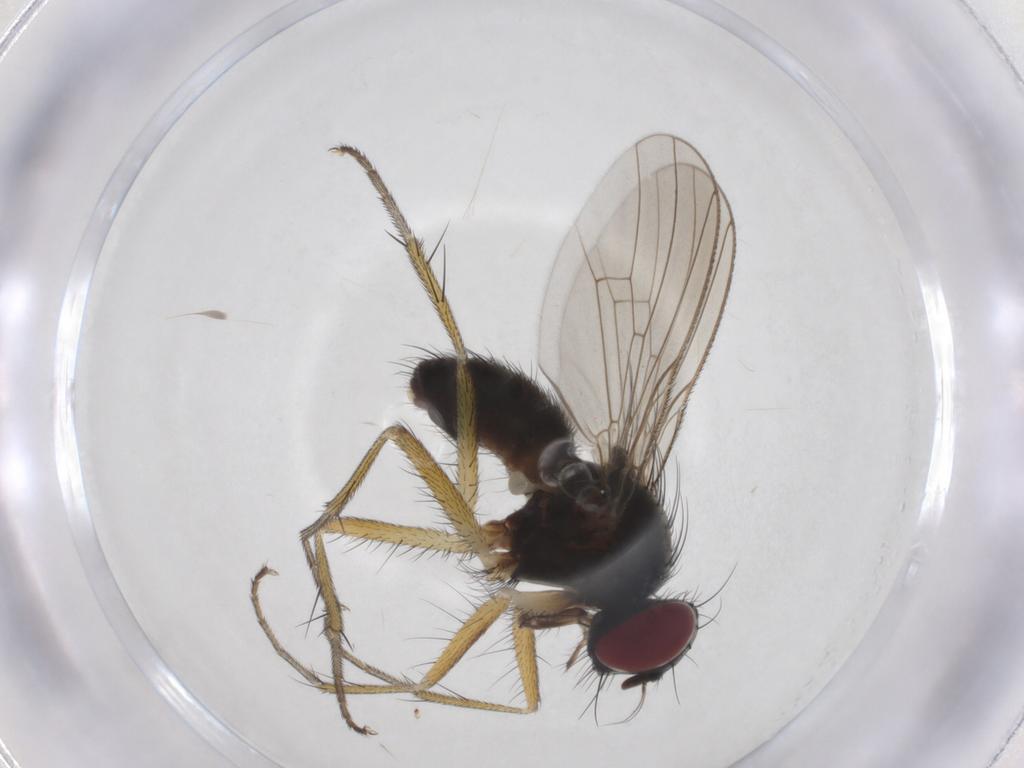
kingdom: Animalia
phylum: Arthropoda
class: Insecta
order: Diptera
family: Muscidae
